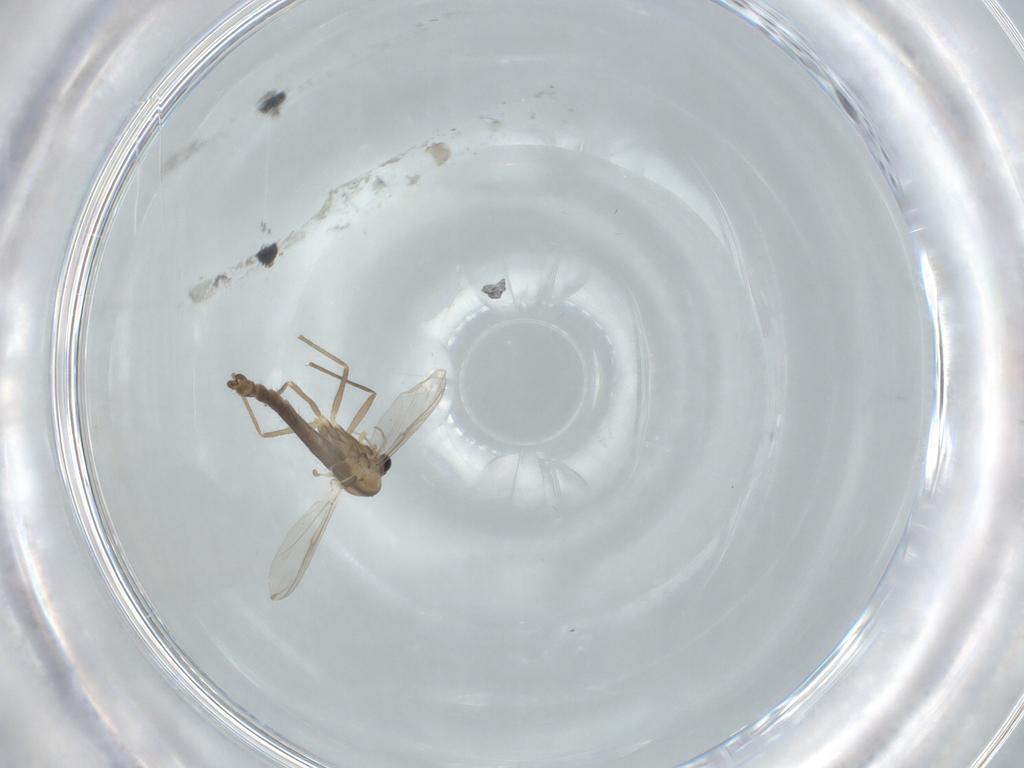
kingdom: Animalia
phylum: Arthropoda
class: Insecta
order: Diptera
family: Chironomidae
